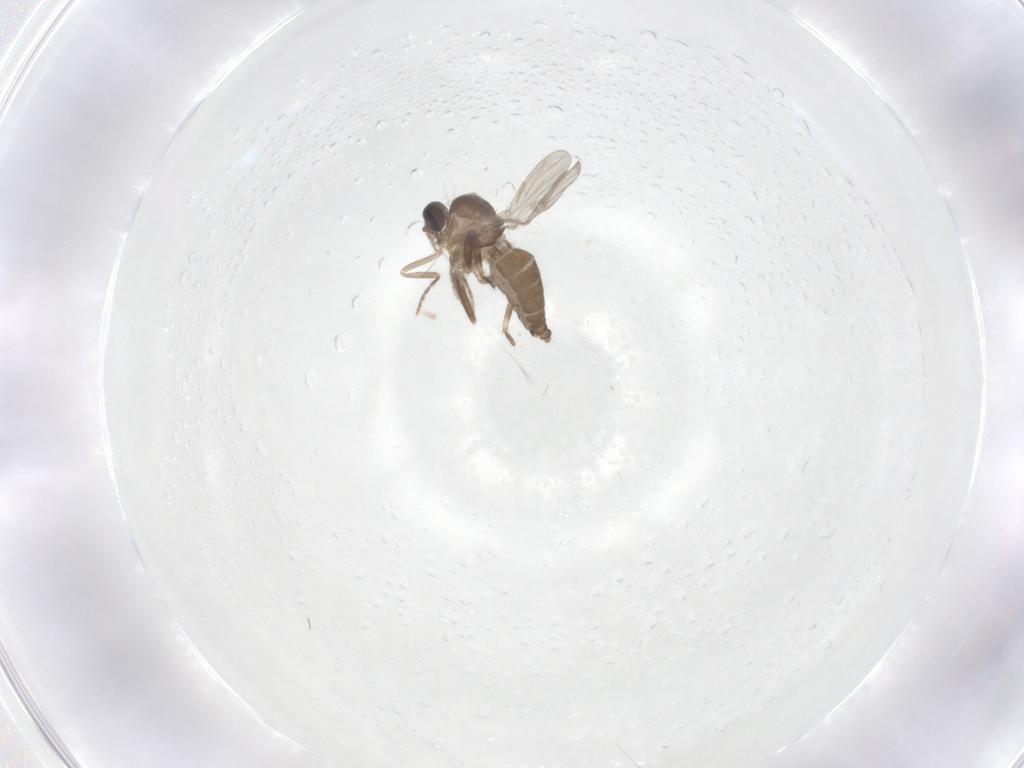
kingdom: Animalia
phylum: Arthropoda
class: Insecta
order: Diptera
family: Ceratopogonidae
